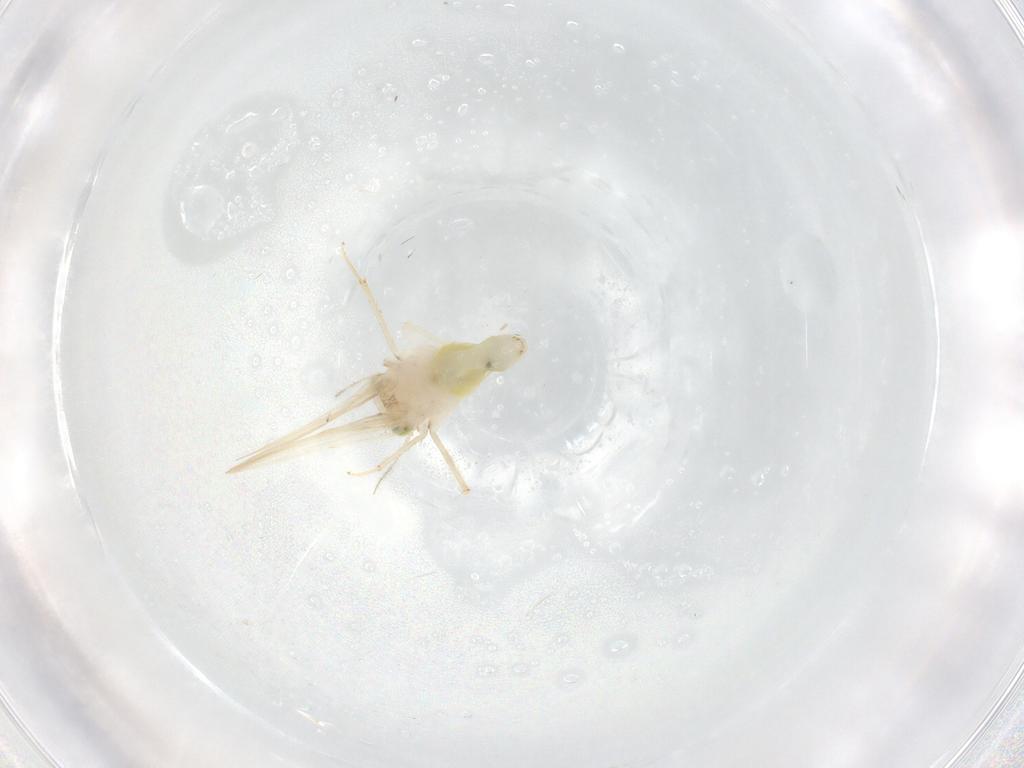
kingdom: Animalia
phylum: Arthropoda
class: Insecta
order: Psocodea
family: Lepidopsocidae
